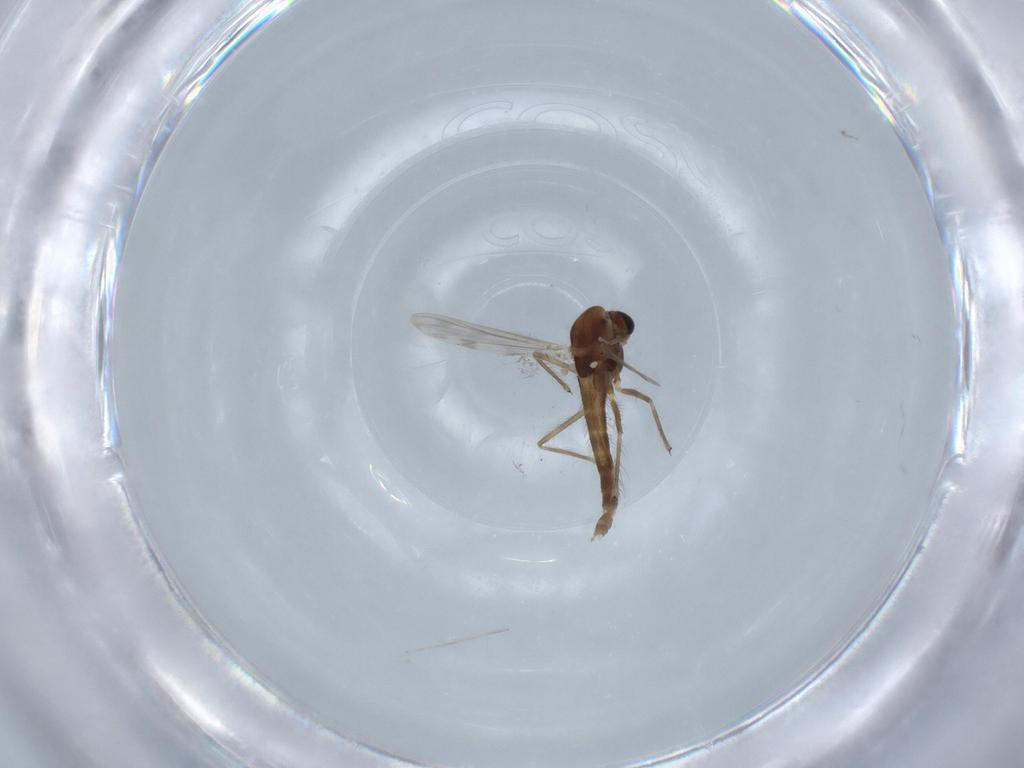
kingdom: Animalia
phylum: Arthropoda
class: Insecta
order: Diptera
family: Chironomidae
